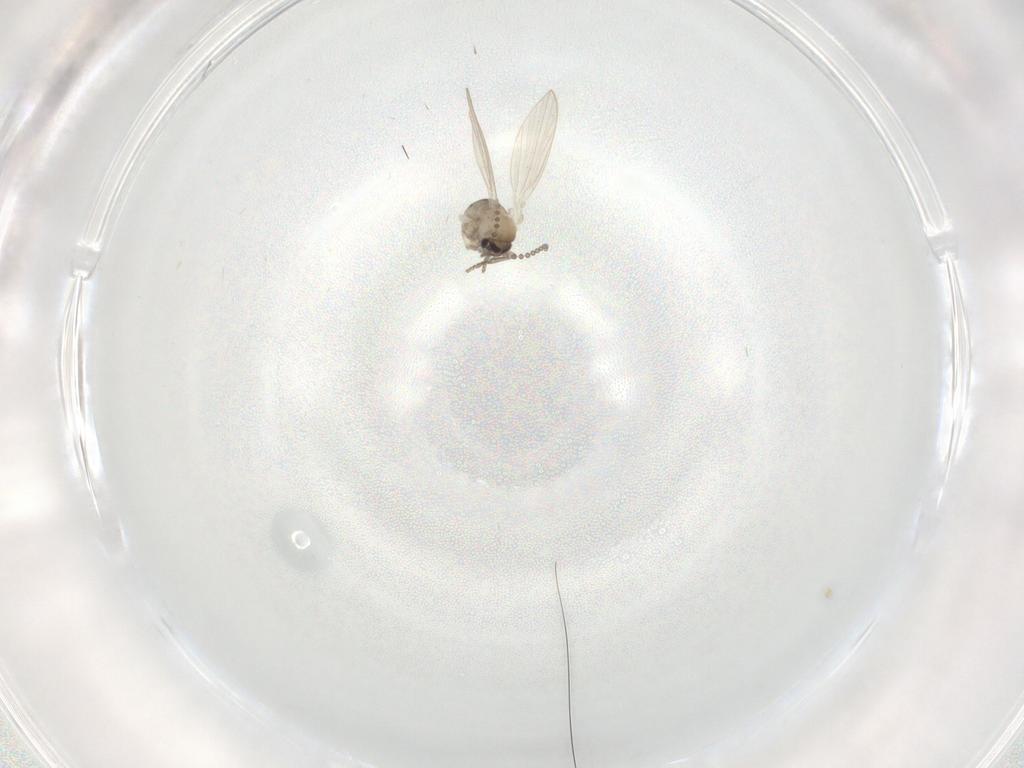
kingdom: Animalia
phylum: Arthropoda
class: Insecta
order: Diptera
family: Psychodidae
